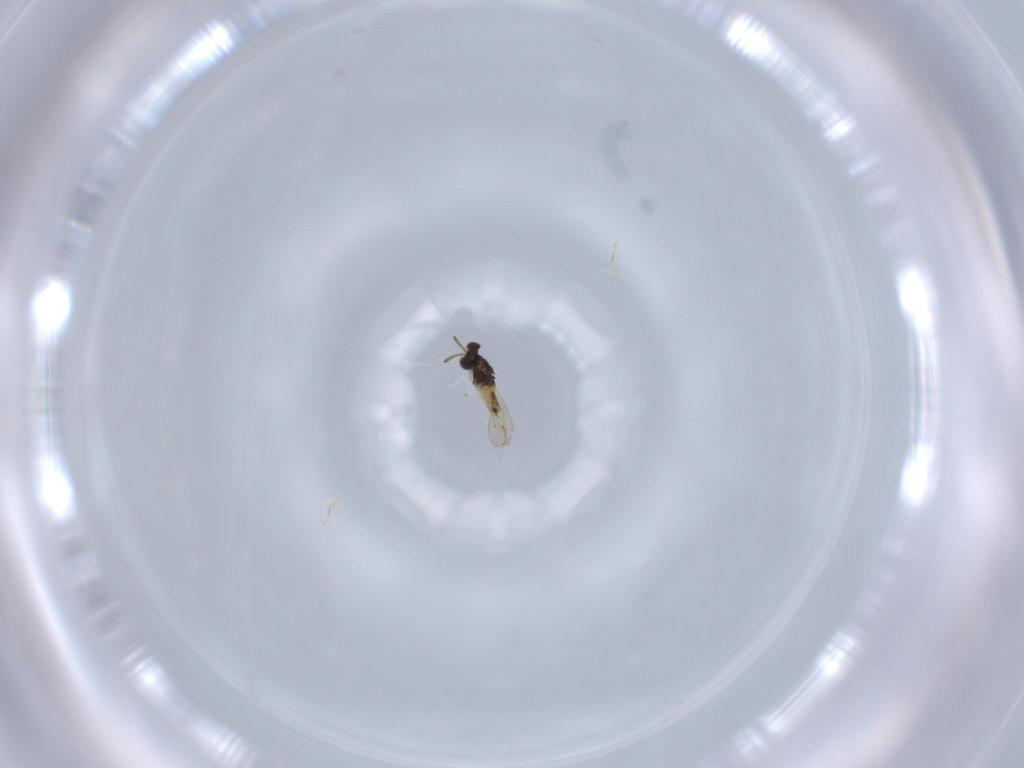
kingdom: Animalia
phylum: Arthropoda
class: Insecta
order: Hymenoptera
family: Aphelinidae
